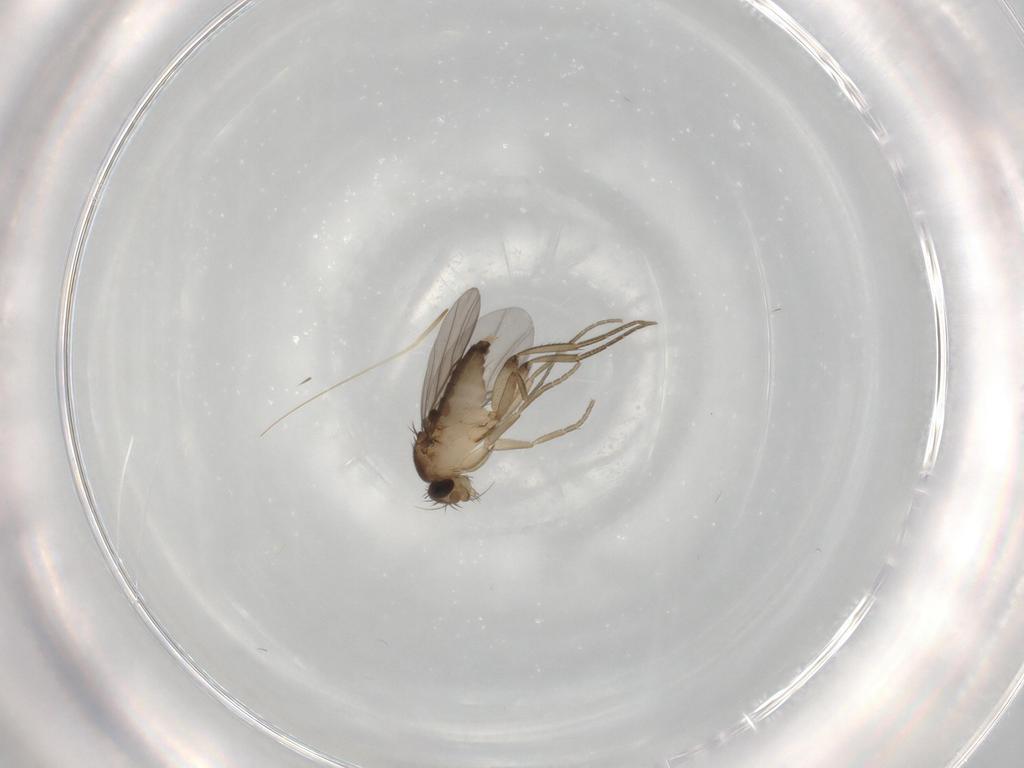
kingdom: Animalia
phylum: Arthropoda
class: Insecta
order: Diptera
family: Phoridae
